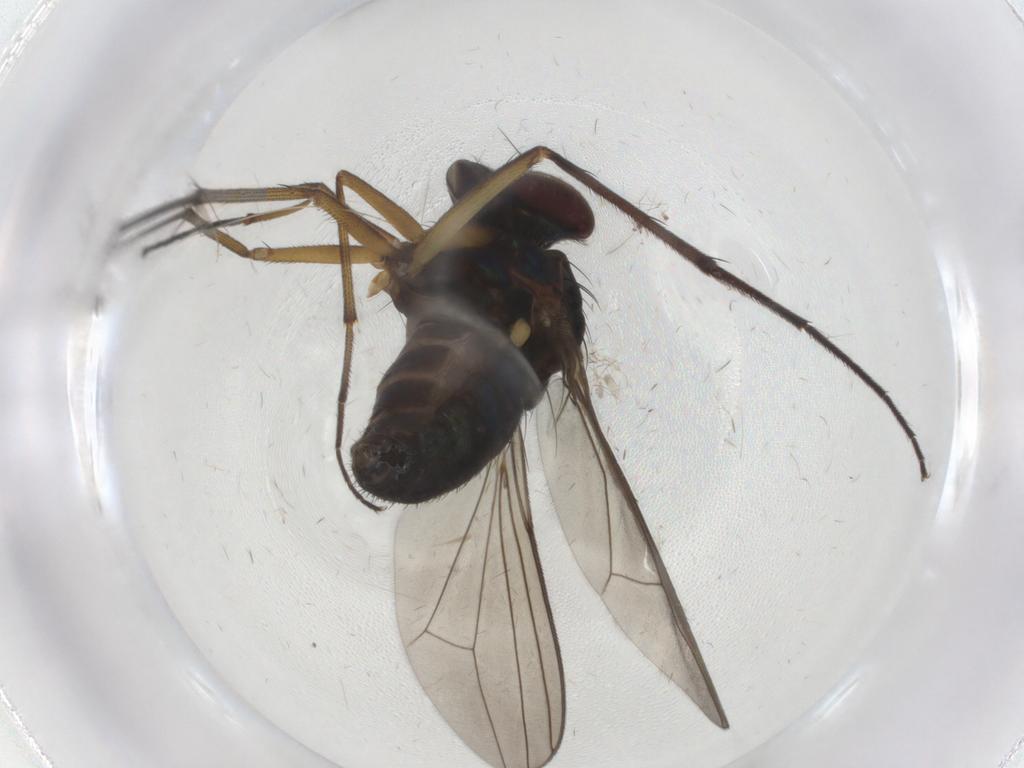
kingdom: Animalia
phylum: Arthropoda
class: Insecta
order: Diptera
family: Dolichopodidae
